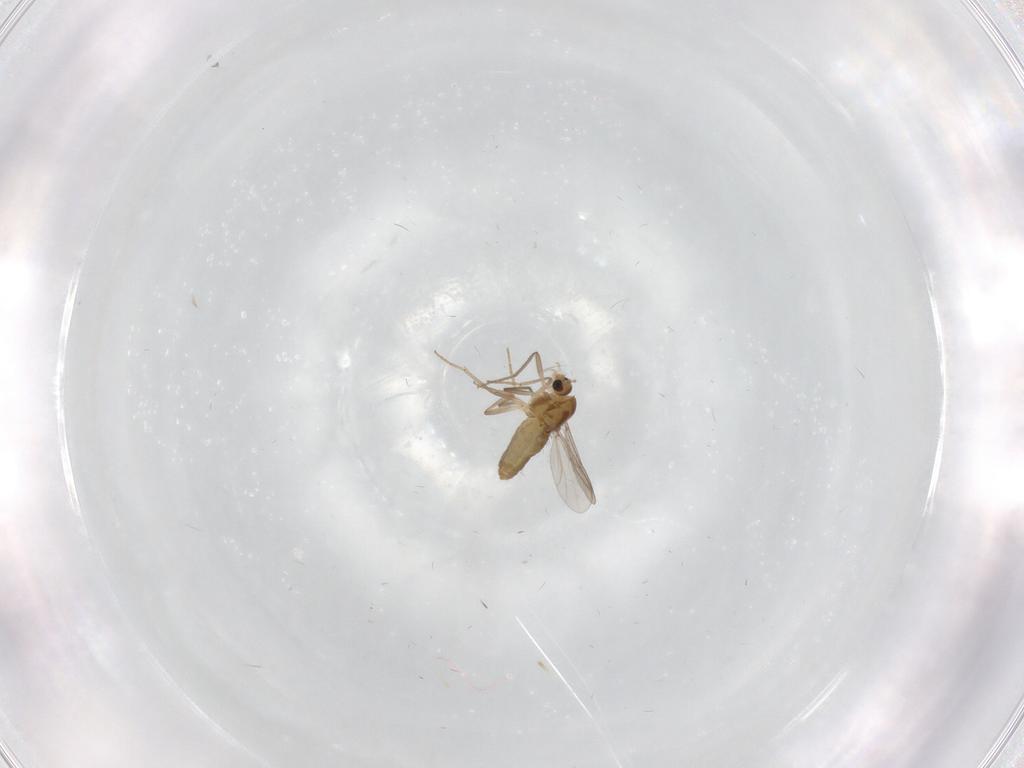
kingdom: Animalia
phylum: Arthropoda
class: Insecta
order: Diptera
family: Chironomidae
